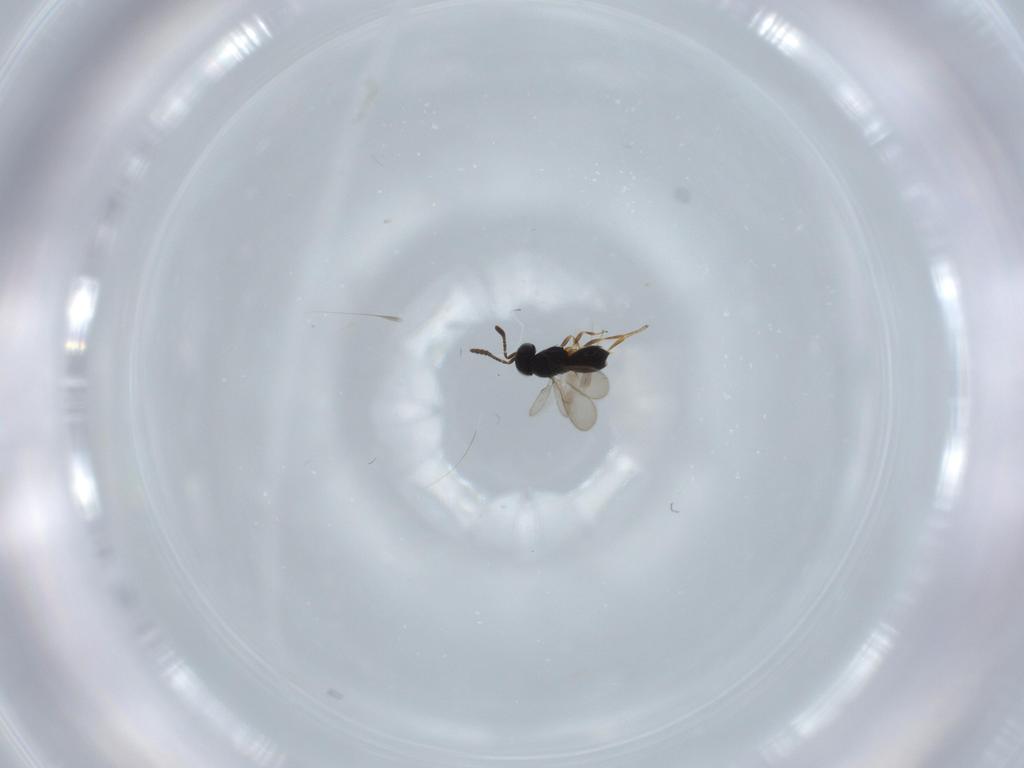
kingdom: Animalia
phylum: Arthropoda
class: Insecta
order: Hymenoptera
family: Scelionidae
